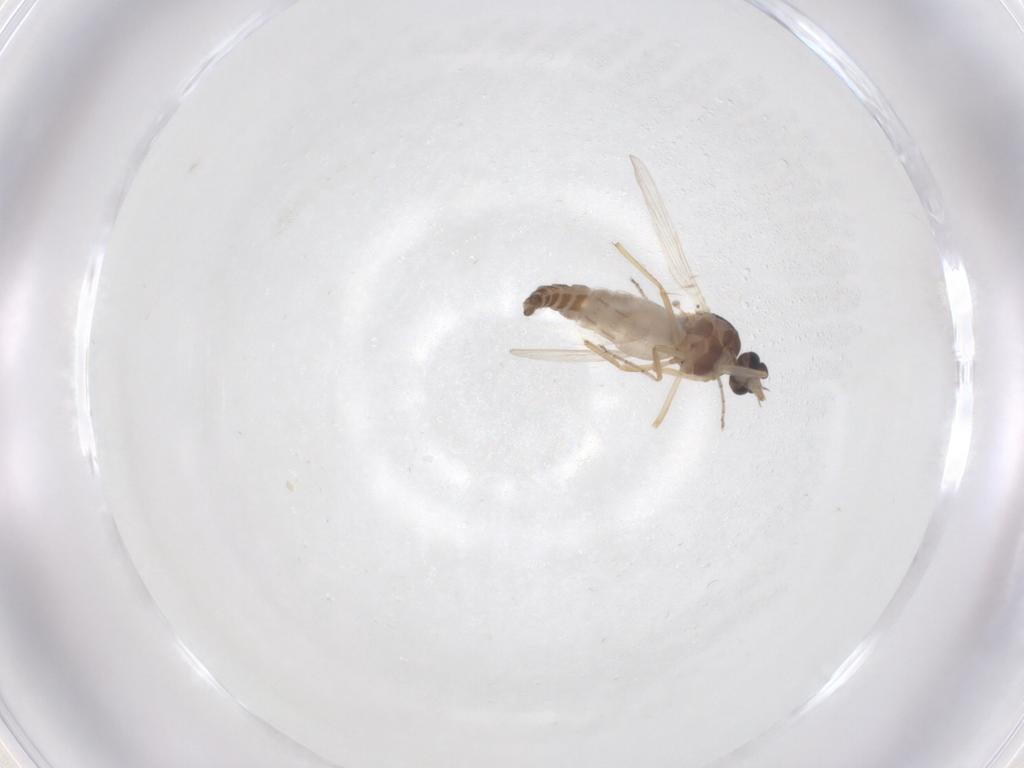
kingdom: Animalia
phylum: Arthropoda
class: Insecta
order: Diptera
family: Ceratopogonidae
